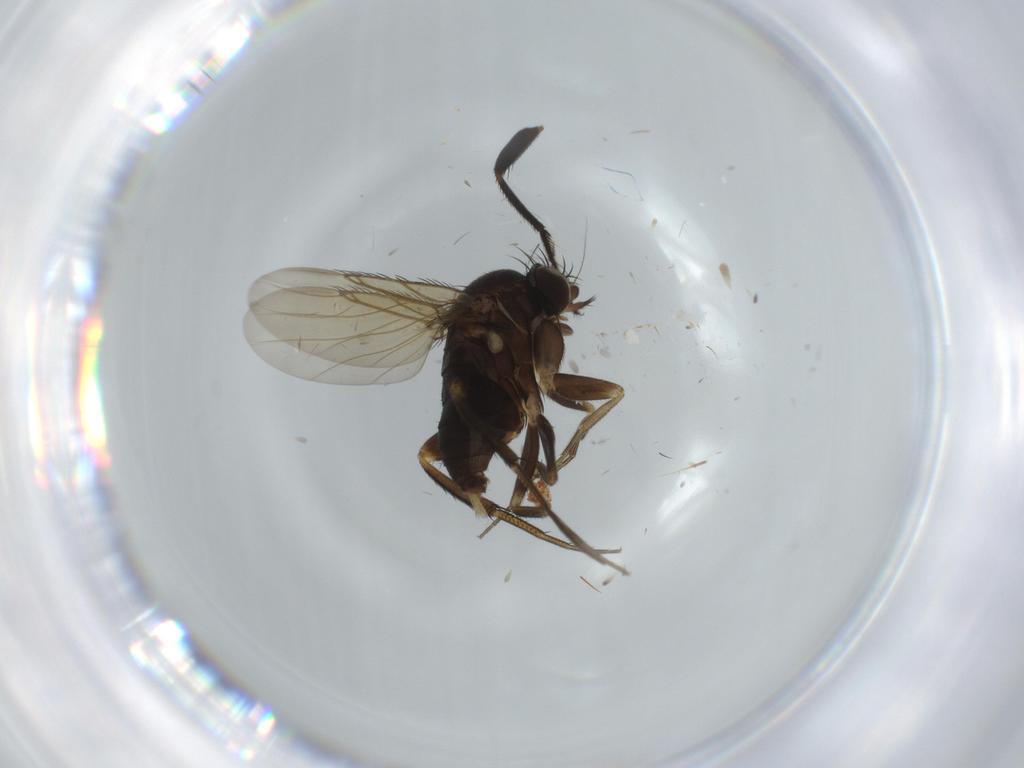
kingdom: Animalia
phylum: Arthropoda
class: Insecta
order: Diptera
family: Milichiidae
